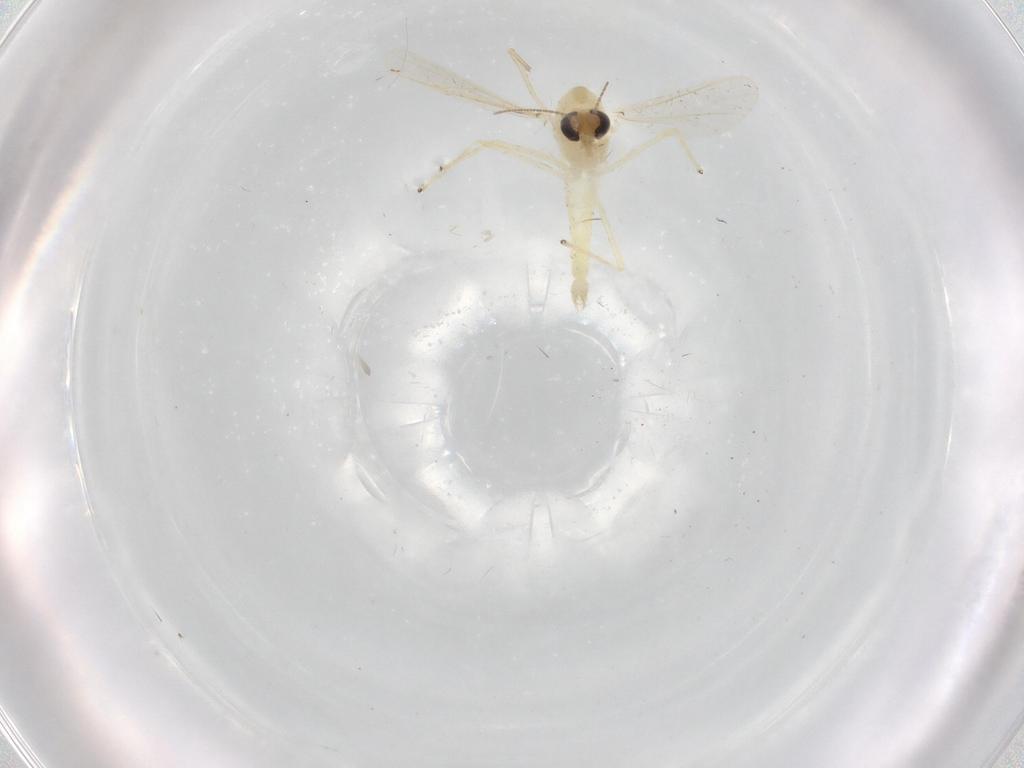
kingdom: Animalia
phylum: Arthropoda
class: Insecta
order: Diptera
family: Chironomidae
